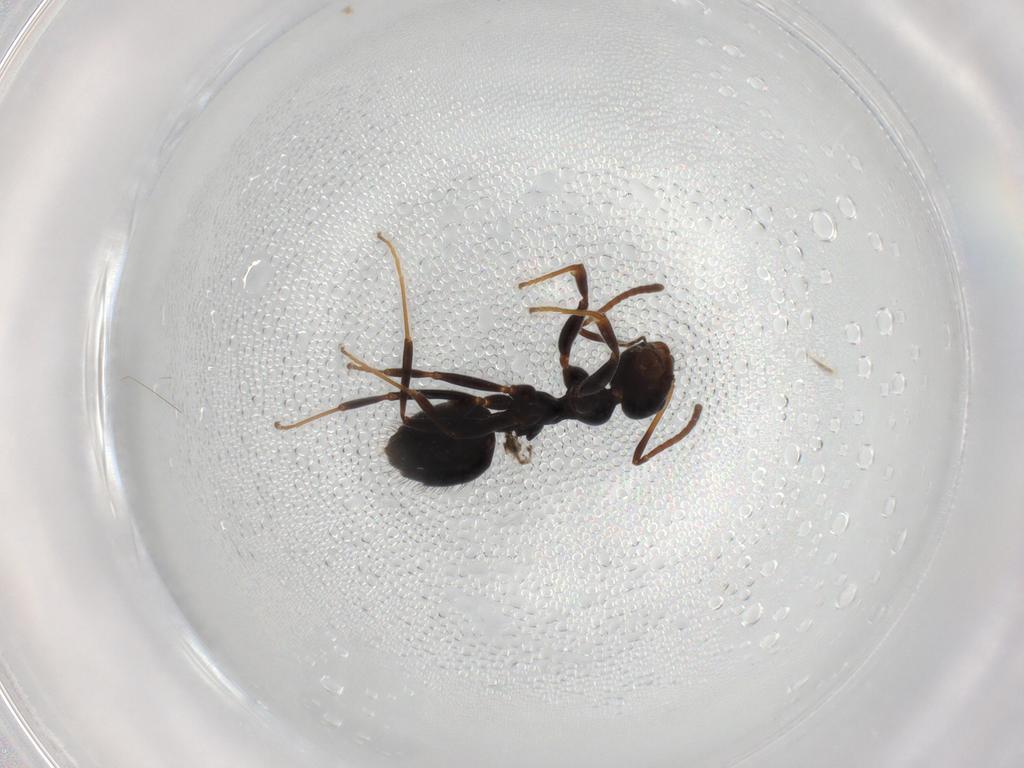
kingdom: Animalia
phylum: Arthropoda
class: Insecta
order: Hymenoptera
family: Formicidae
